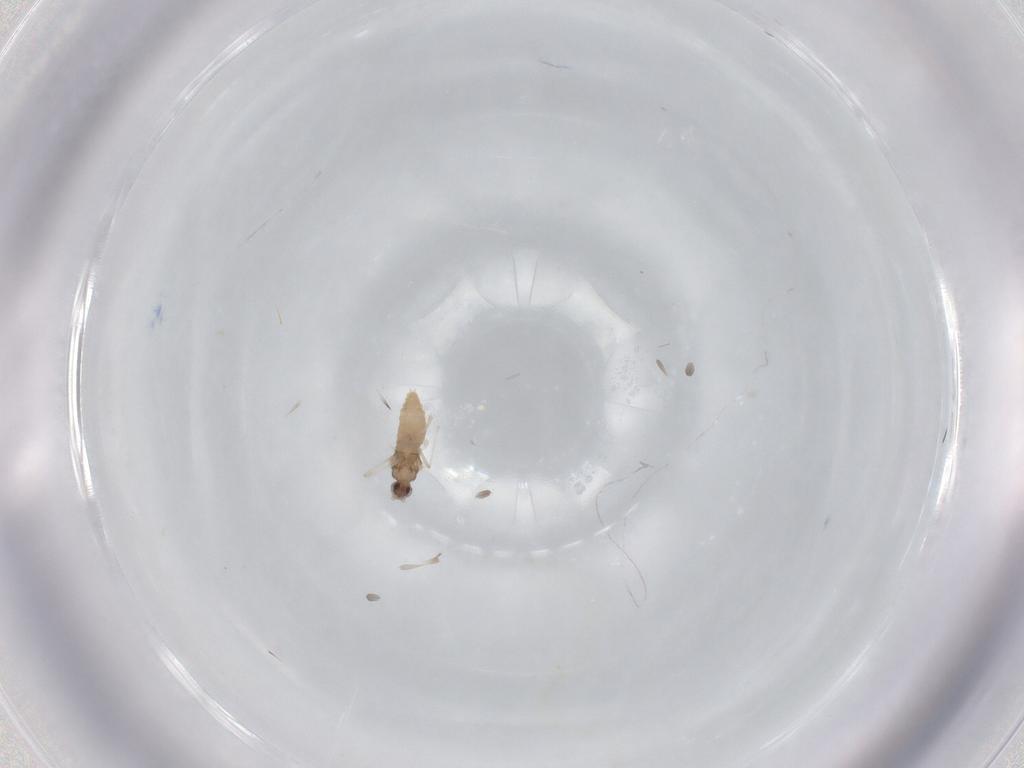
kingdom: Animalia
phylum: Arthropoda
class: Insecta
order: Diptera
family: Cecidomyiidae
